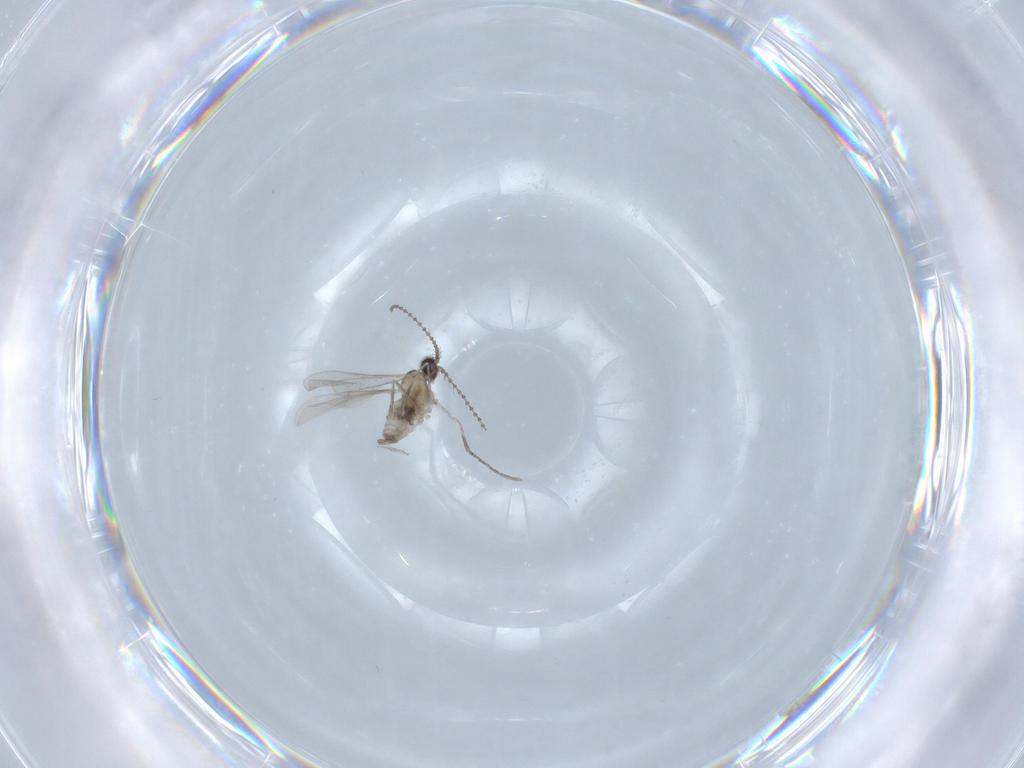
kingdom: Animalia
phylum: Arthropoda
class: Insecta
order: Diptera
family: Cecidomyiidae
